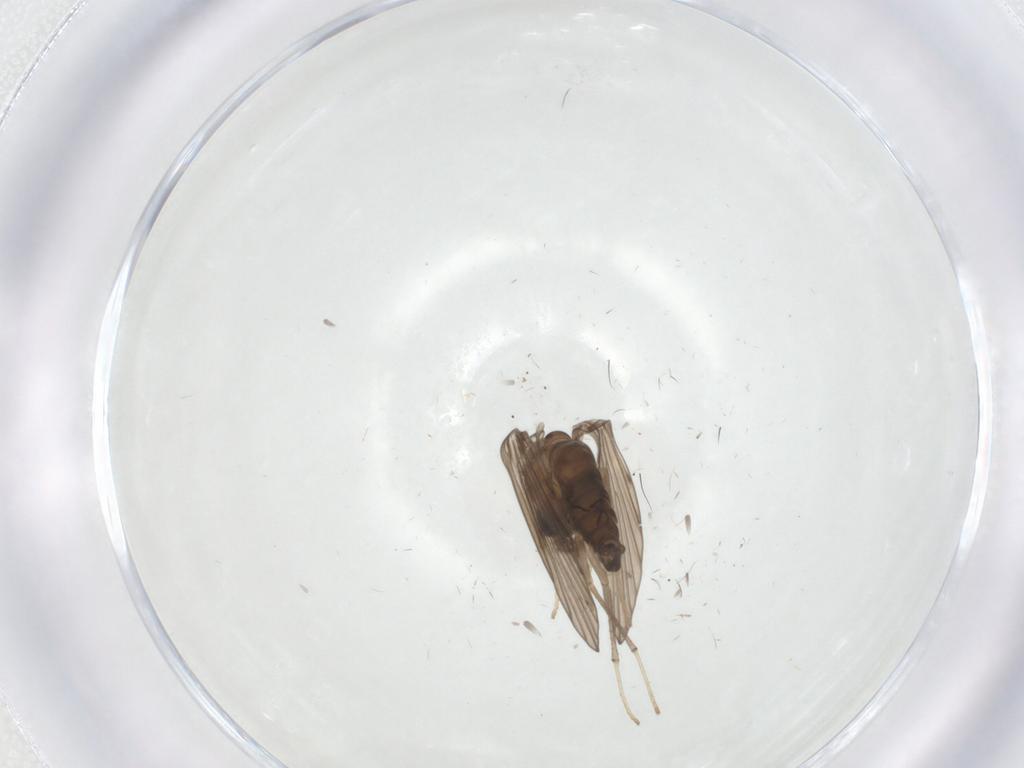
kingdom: Animalia
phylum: Arthropoda
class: Insecta
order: Diptera
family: Psychodidae
